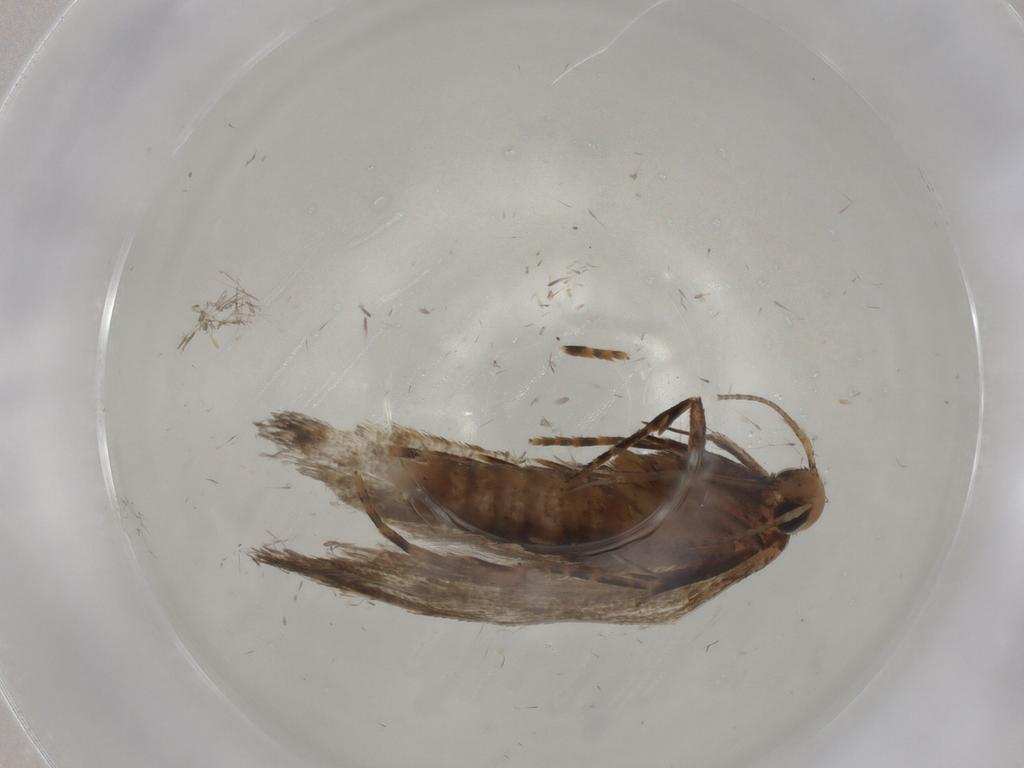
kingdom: Animalia
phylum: Arthropoda
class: Insecta
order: Lepidoptera
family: Gelechiidae
